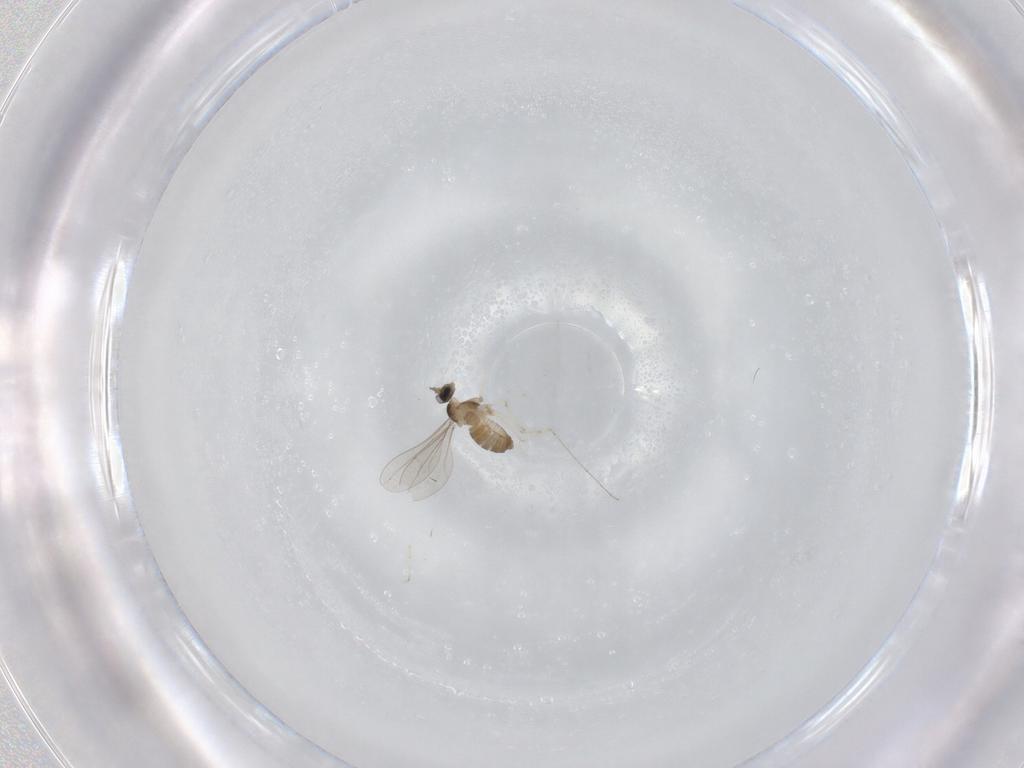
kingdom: Animalia
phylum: Arthropoda
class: Insecta
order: Diptera
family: Cecidomyiidae
